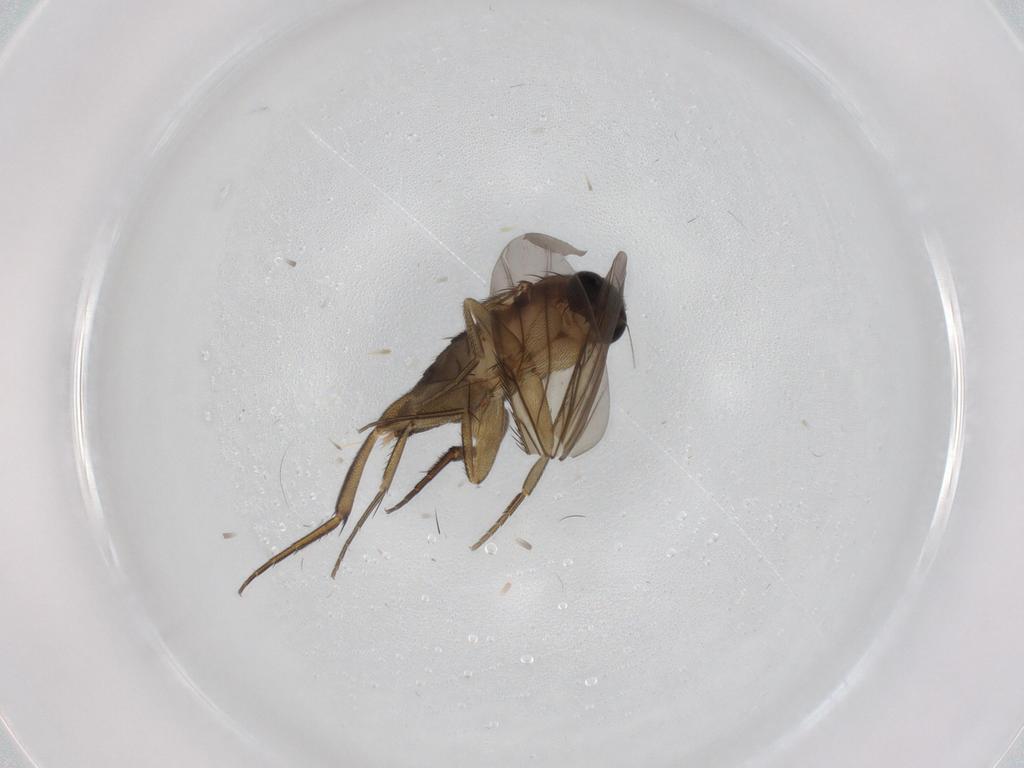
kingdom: Animalia
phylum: Arthropoda
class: Insecta
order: Diptera
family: Phoridae
